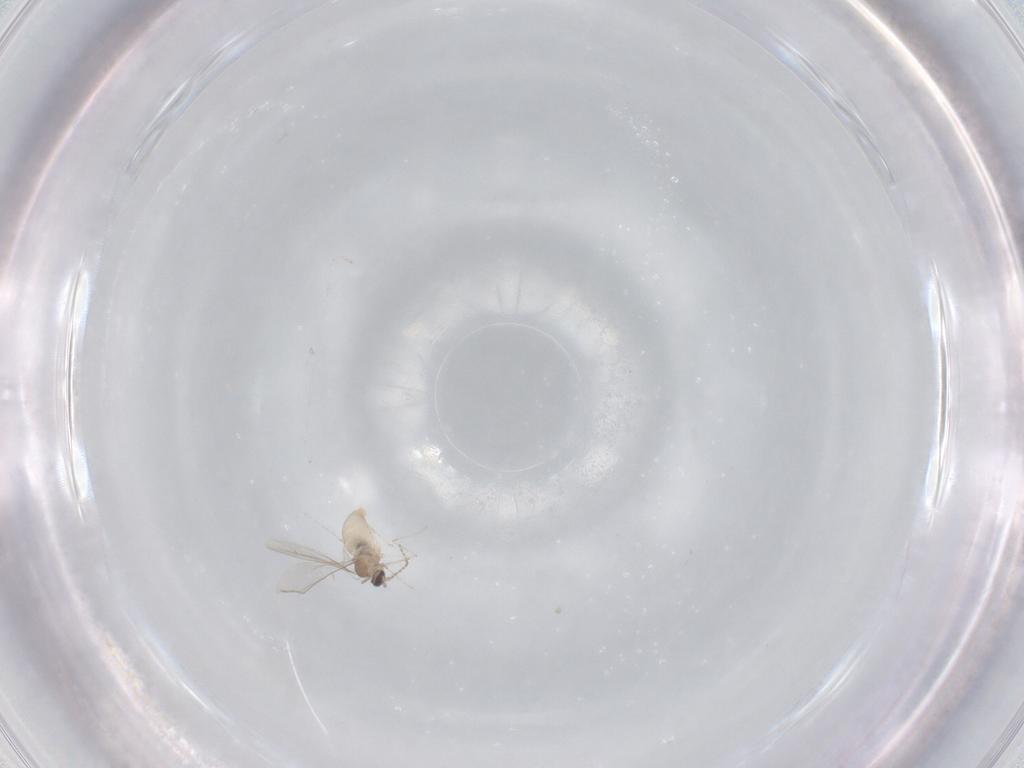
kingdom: Animalia
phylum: Arthropoda
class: Insecta
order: Diptera
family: Cecidomyiidae
